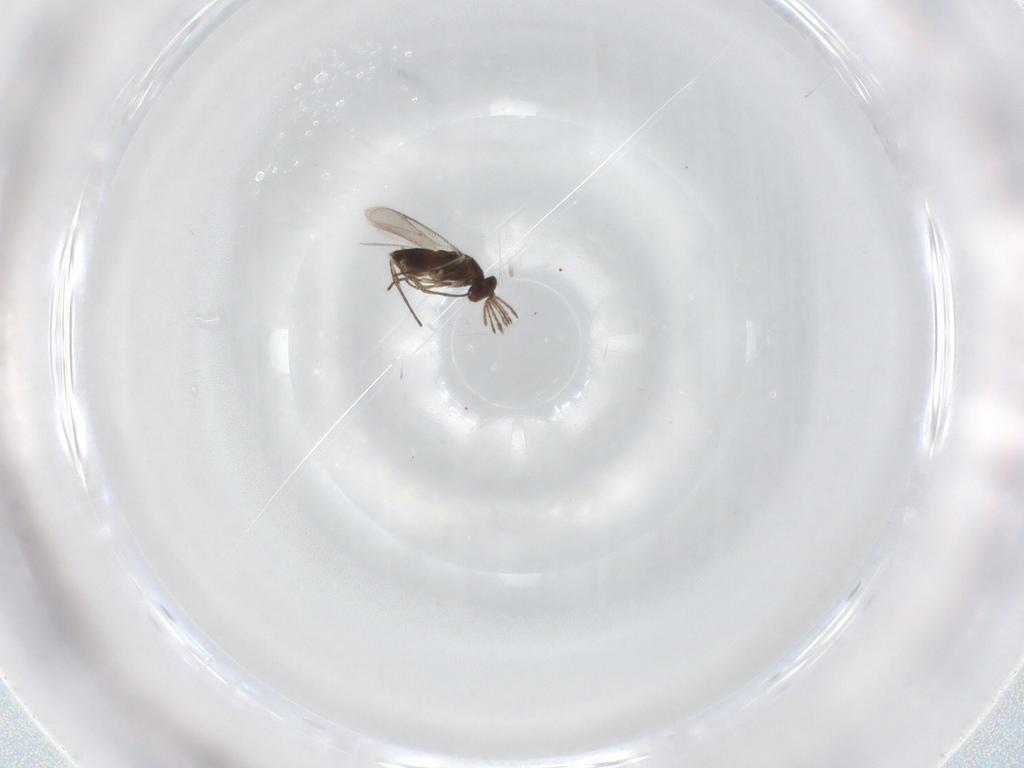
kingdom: Animalia
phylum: Arthropoda
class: Insecta
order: Hymenoptera
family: Eulophidae
